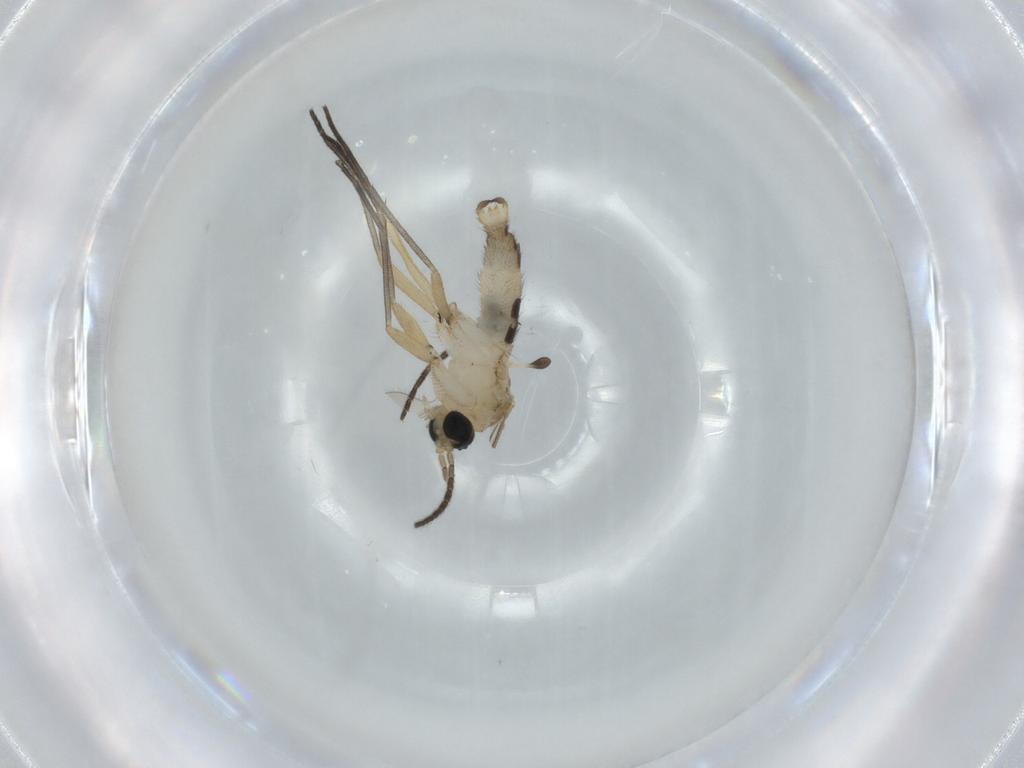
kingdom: Animalia
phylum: Arthropoda
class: Insecta
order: Diptera
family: Sciaridae
